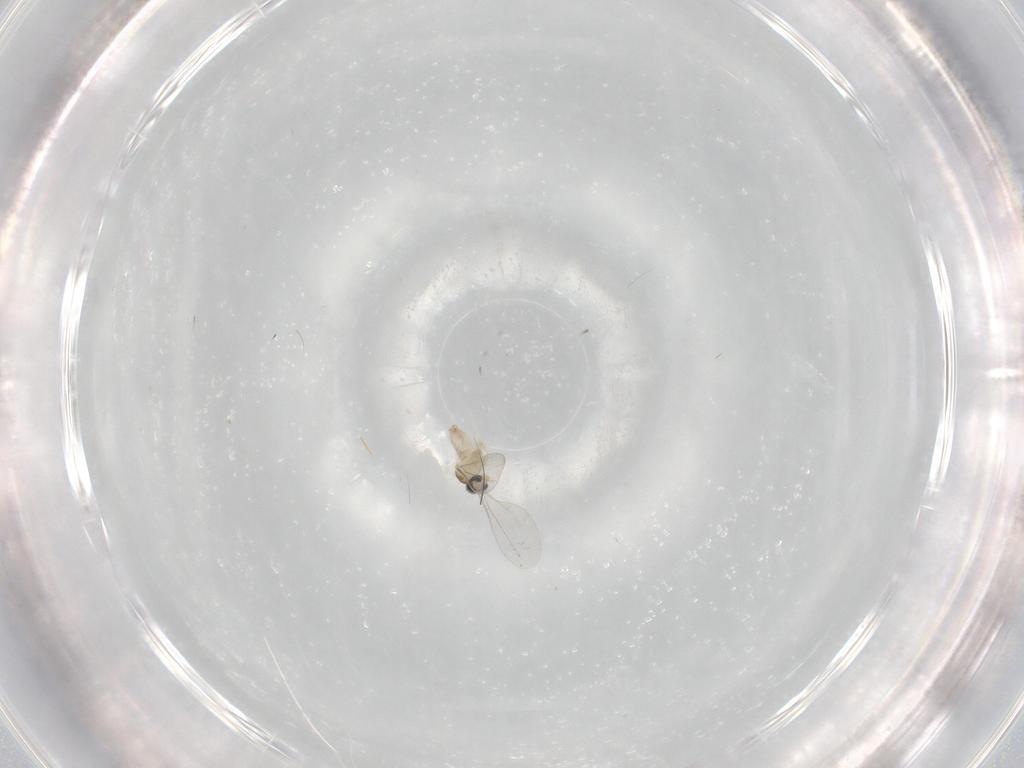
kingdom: Animalia
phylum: Arthropoda
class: Insecta
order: Diptera
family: Cecidomyiidae
